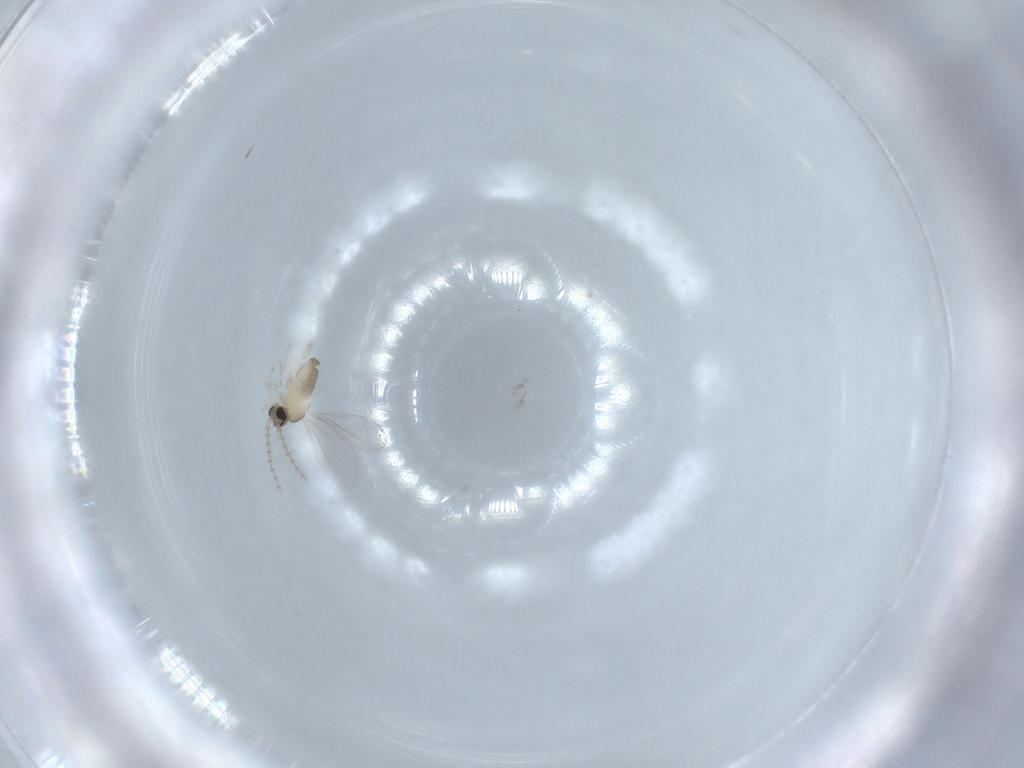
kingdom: Animalia
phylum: Arthropoda
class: Insecta
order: Diptera
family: Cecidomyiidae
